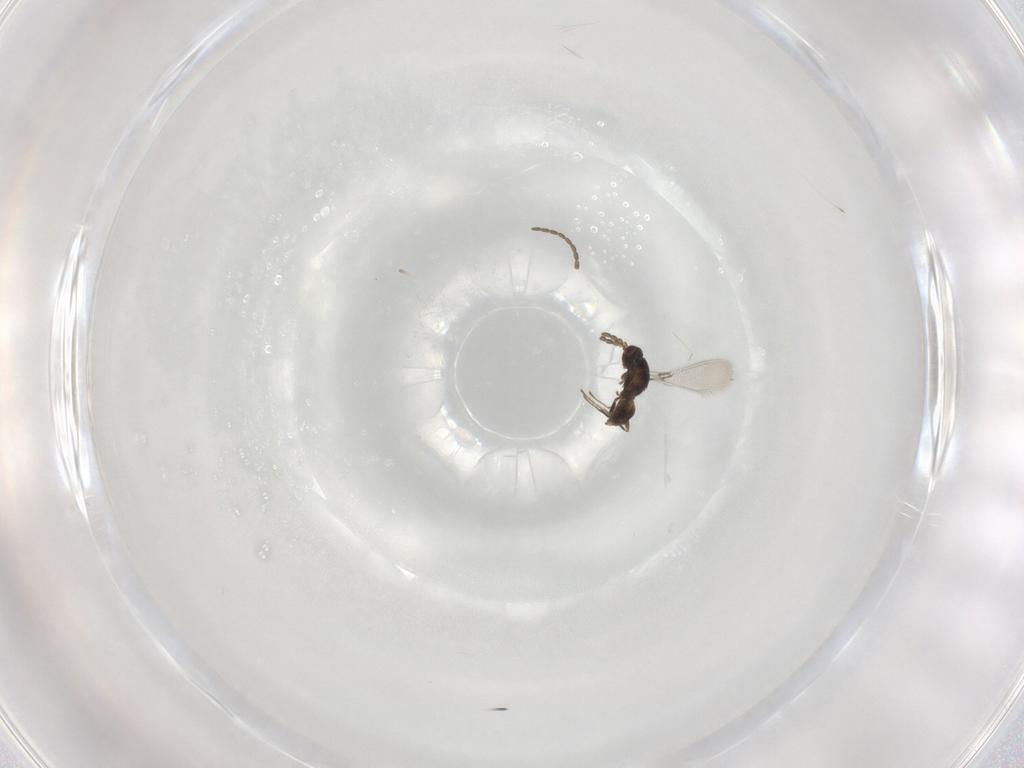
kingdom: Animalia
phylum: Arthropoda
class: Insecta
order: Hymenoptera
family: Mymaridae
